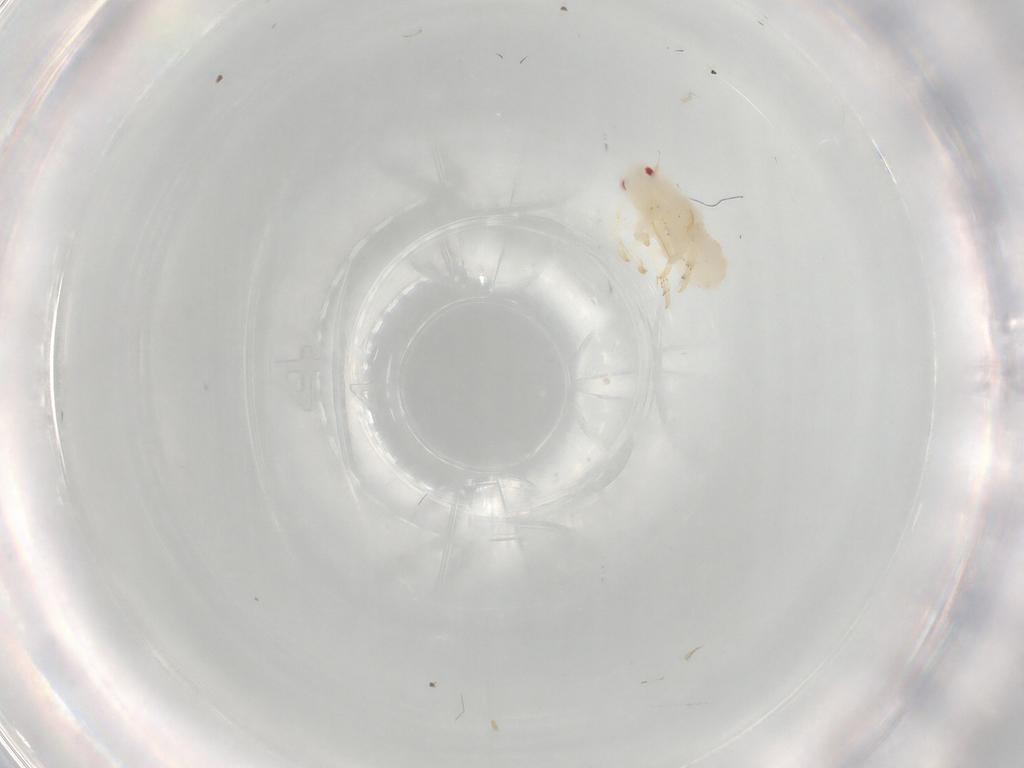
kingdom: Animalia
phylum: Arthropoda
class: Insecta
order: Hemiptera
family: Flatidae
